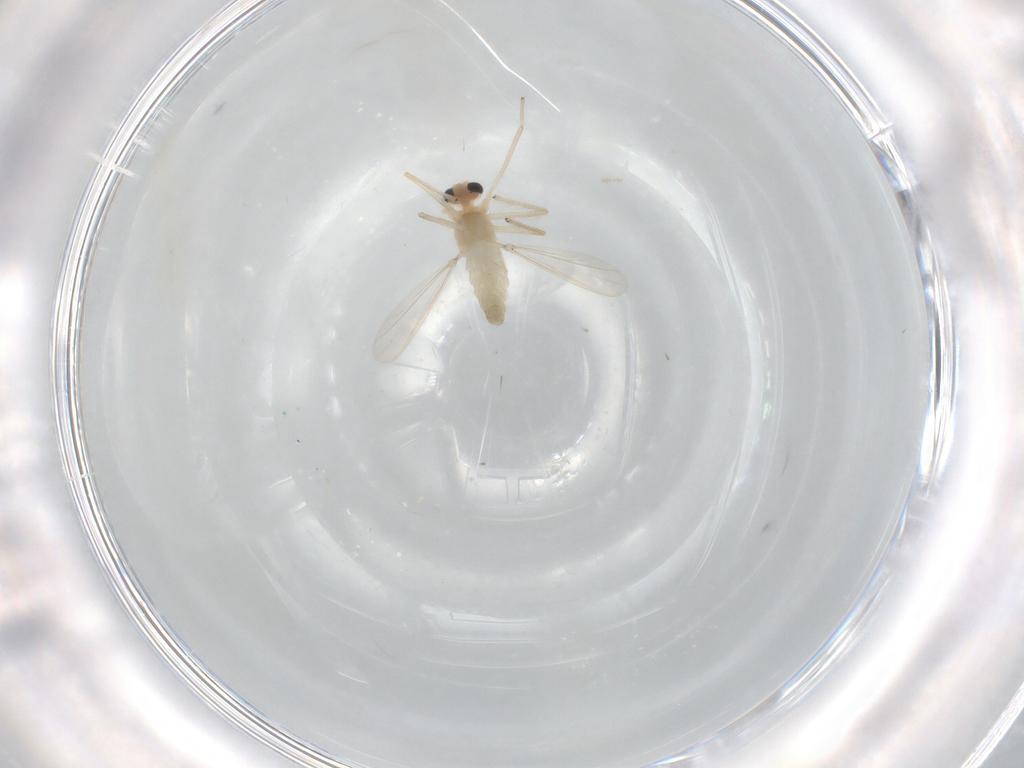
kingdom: Animalia
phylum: Arthropoda
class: Insecta
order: Diptera
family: Chironomidae
